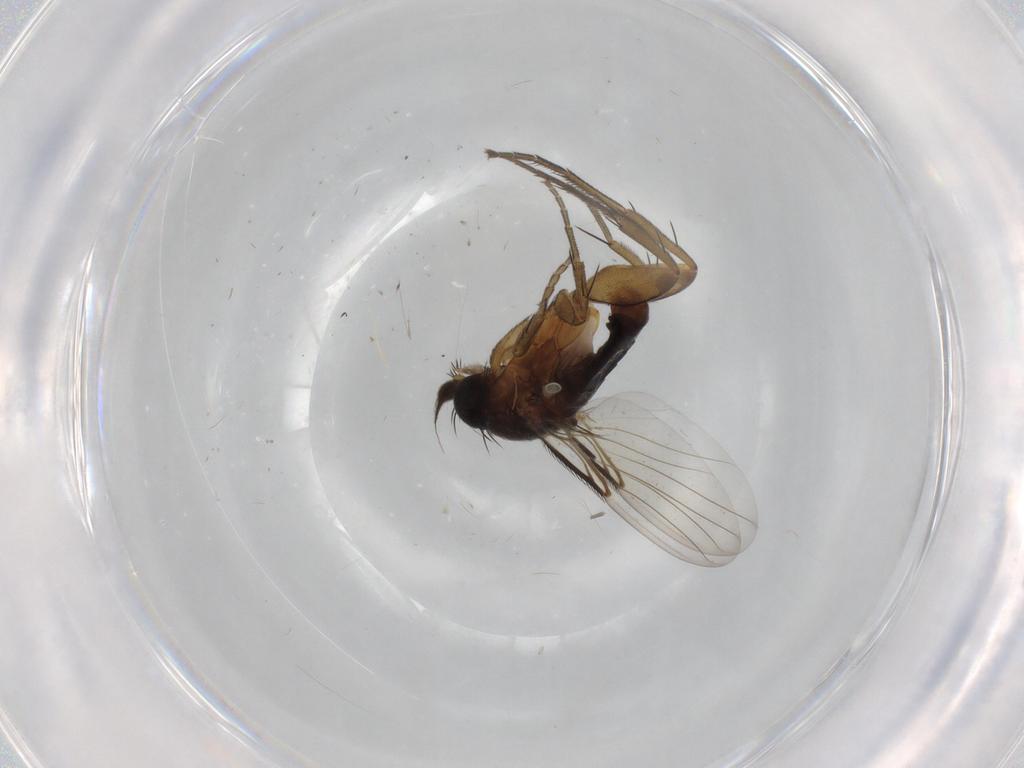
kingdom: Animalia
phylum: Arthropoda
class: Insecta
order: Diptera
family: Phoridae
